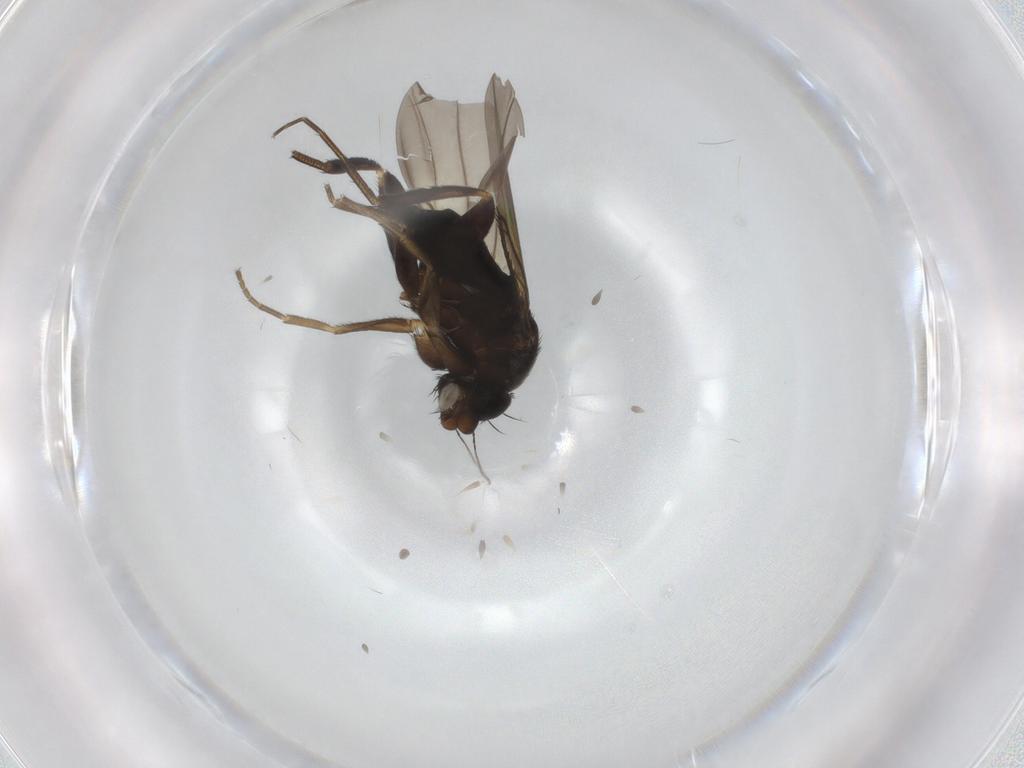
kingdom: Animalia
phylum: Arthropoda
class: Insecta
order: Diptera
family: Phoridae
